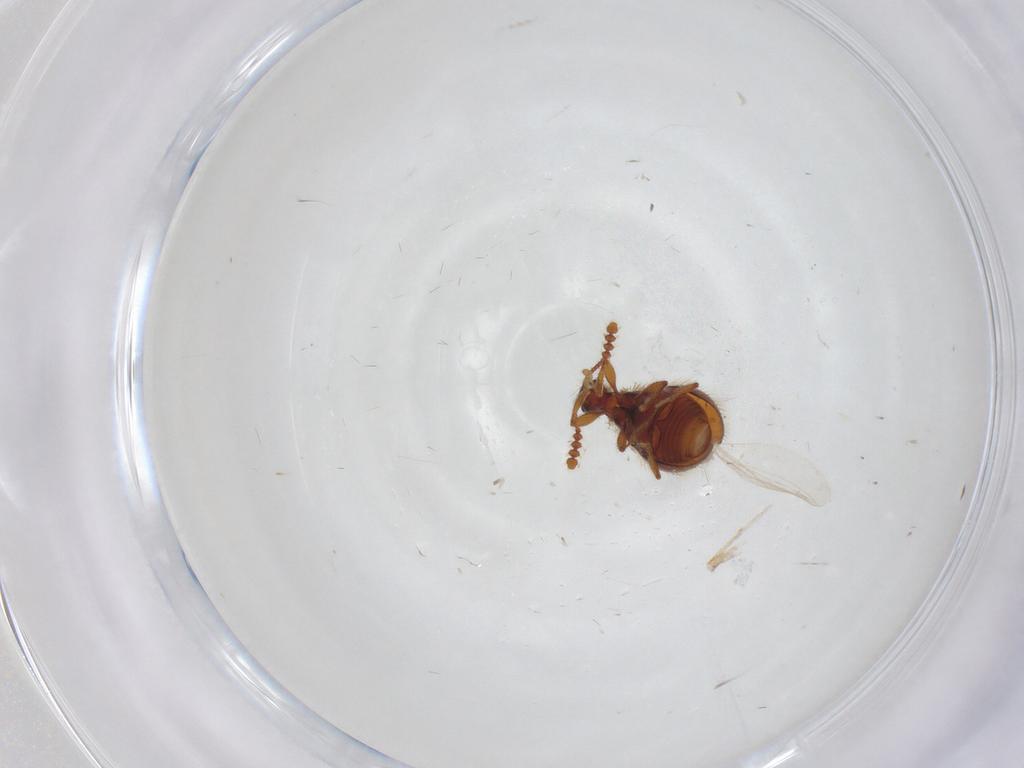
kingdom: Animalia
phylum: Arthropoda
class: Insecta
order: Coleoptera
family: Staphylinidae
